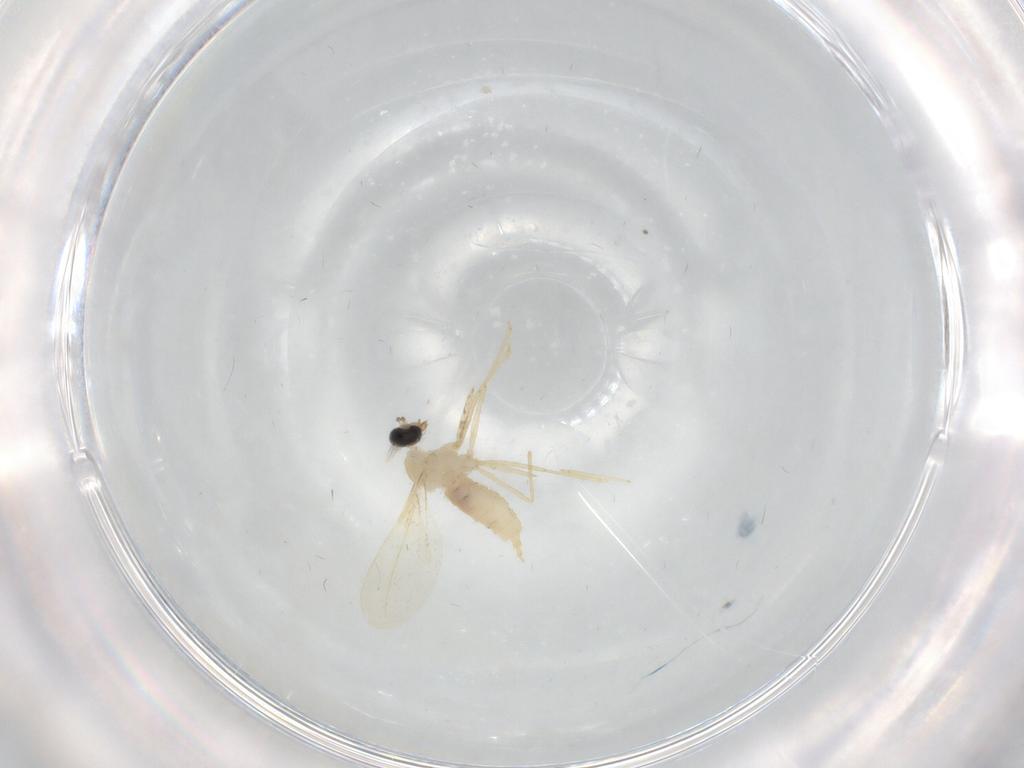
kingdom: Animalia
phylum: Arthropoda
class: Insecta
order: Diptera
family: Cecidomyiidae
